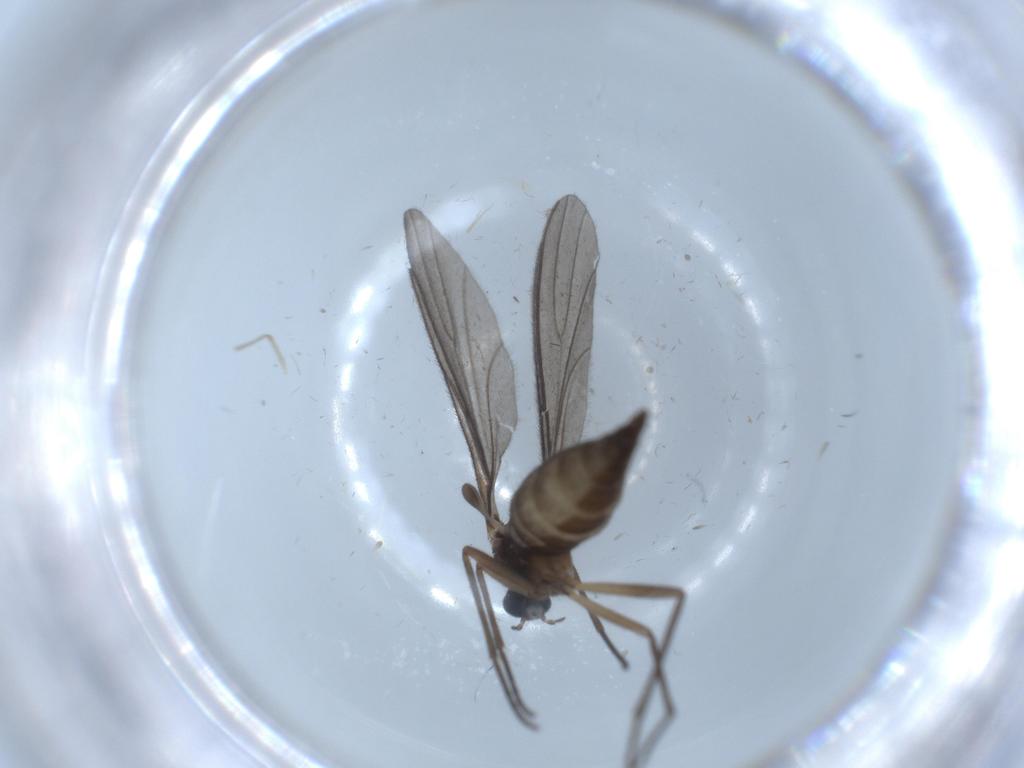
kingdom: Animalia
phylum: Arthropoda
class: Insecta
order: Diptera
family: Sciaridae
